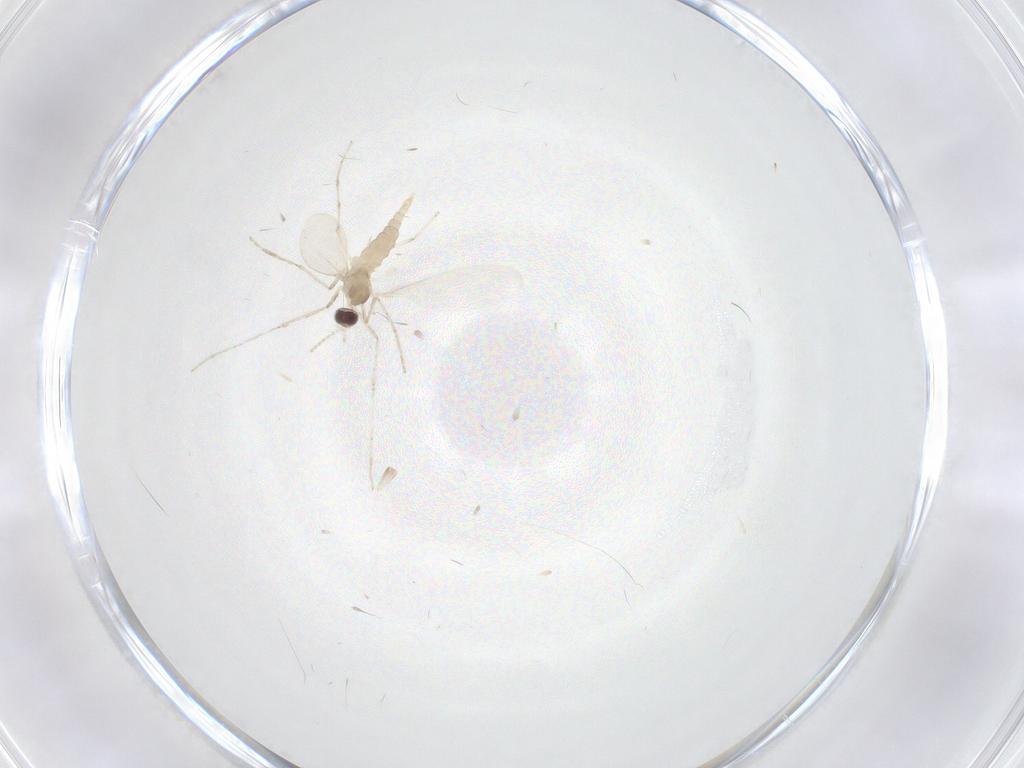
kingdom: Animalia
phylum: Arthropoda
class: Insecta
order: Diptera
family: Cecidomyiidae
